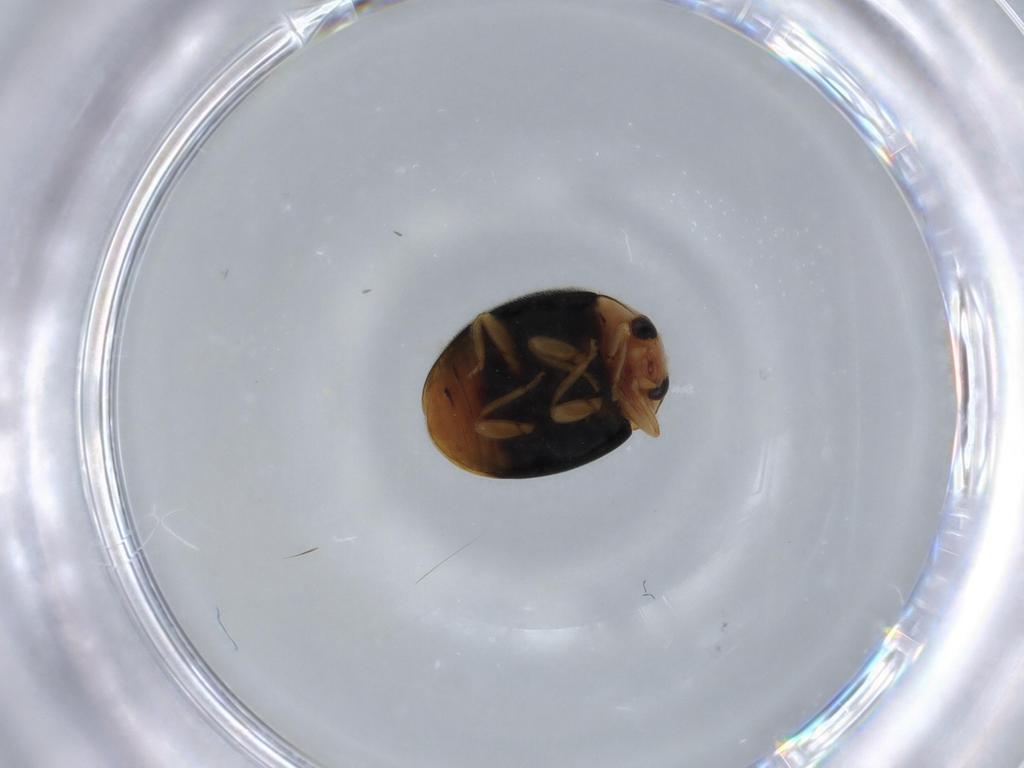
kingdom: Animalia
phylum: Arthropoda
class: Insecta
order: Coleoptera
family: Coccinellidae
